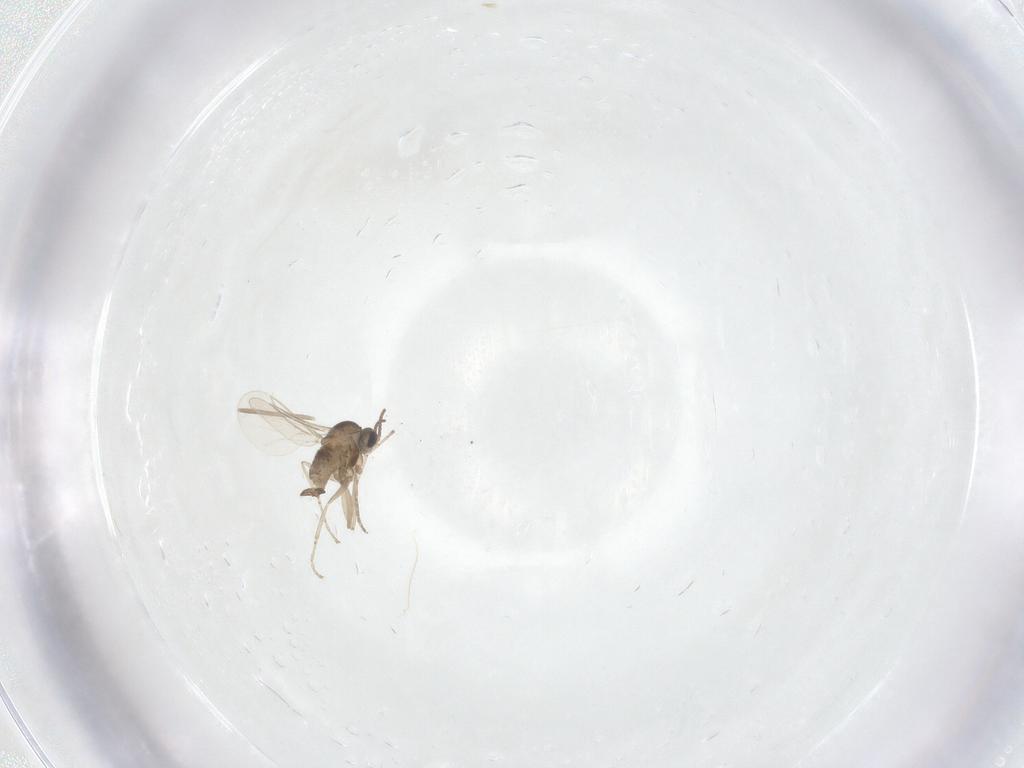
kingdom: Animalia
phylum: Arthropoda
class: Insecta
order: Diptera
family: Cecidomyiidae
